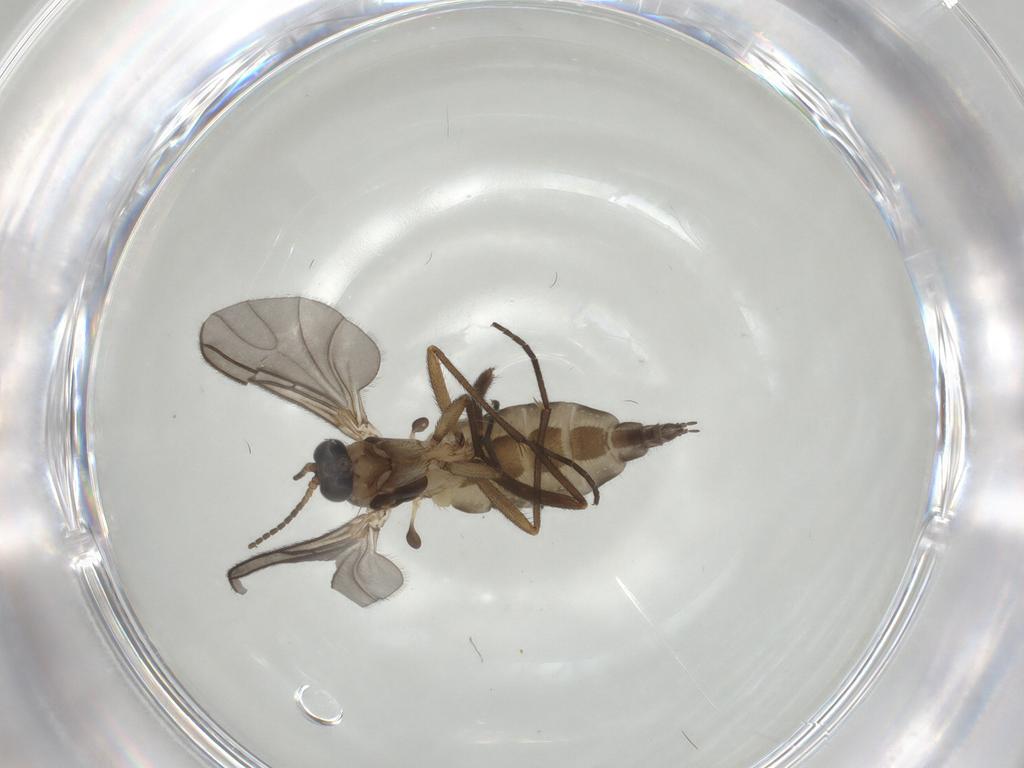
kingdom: Animalia
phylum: Arthropoda
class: Insecta
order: Diptera
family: Sciaridae
